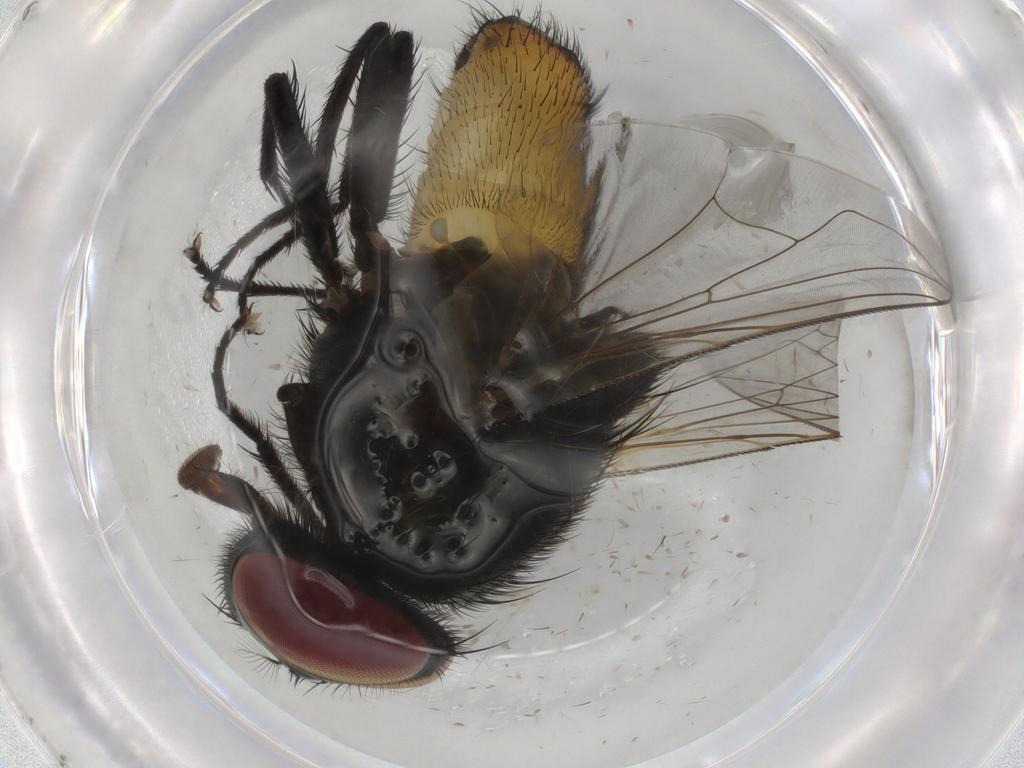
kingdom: Animalia
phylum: Arthropoda
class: Insecta
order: Diptera
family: Muscidae
